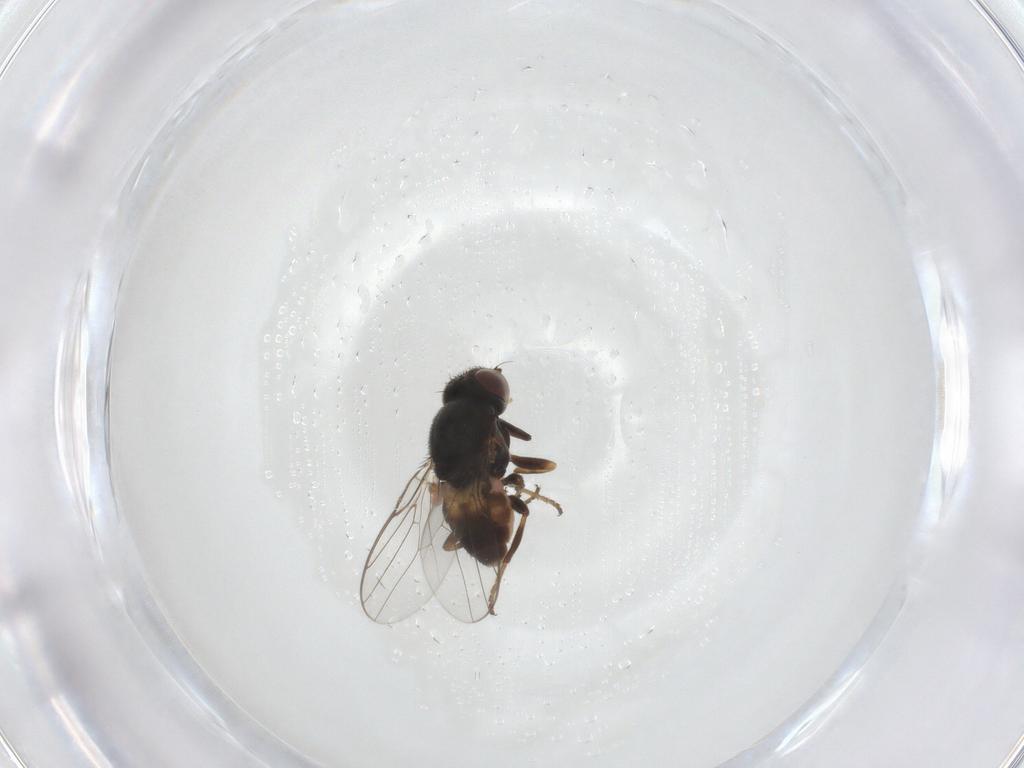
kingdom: Animalia
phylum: Arthropoda
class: Insecta
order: Diptera
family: Chloropidae
